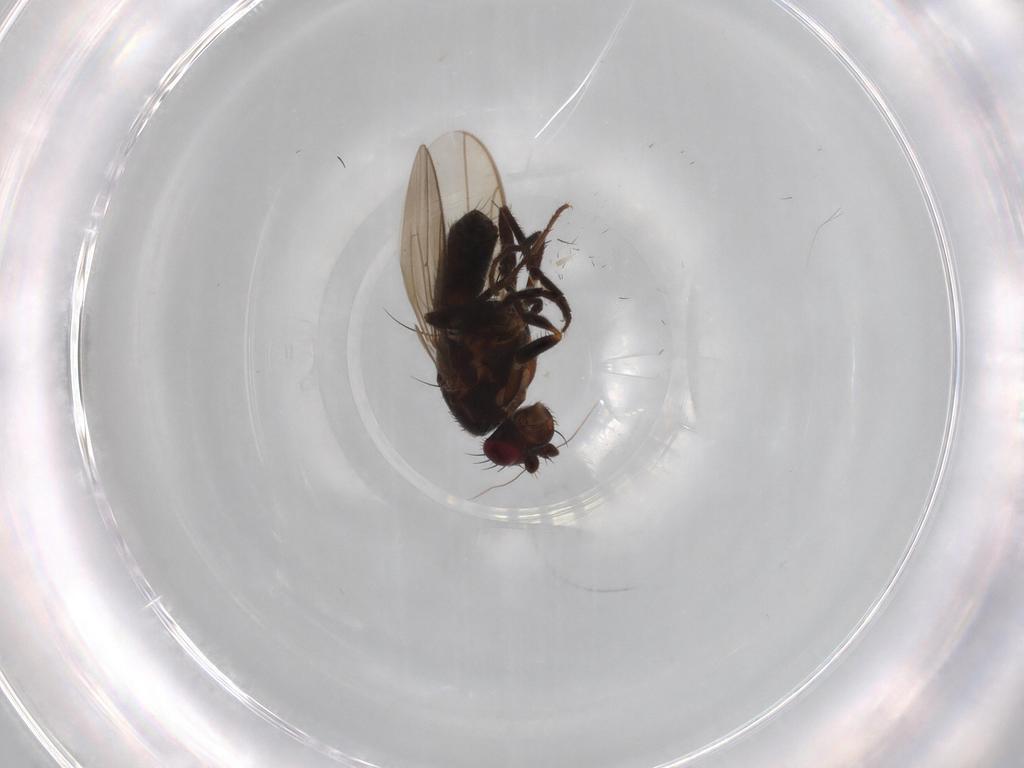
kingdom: Animalia
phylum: Arthropoda
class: Insecta
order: Diptera
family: Sphaeroceridae
